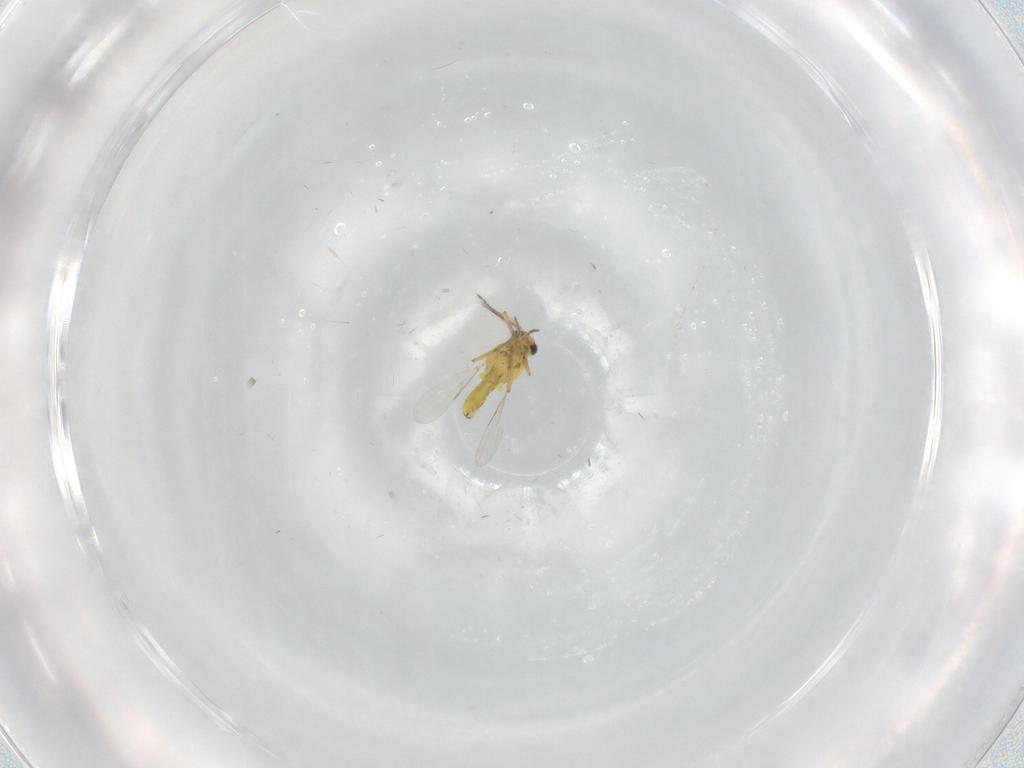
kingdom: Animalia
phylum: Arthropoda
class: Insecta
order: Diptera
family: Ceratopogonidae
